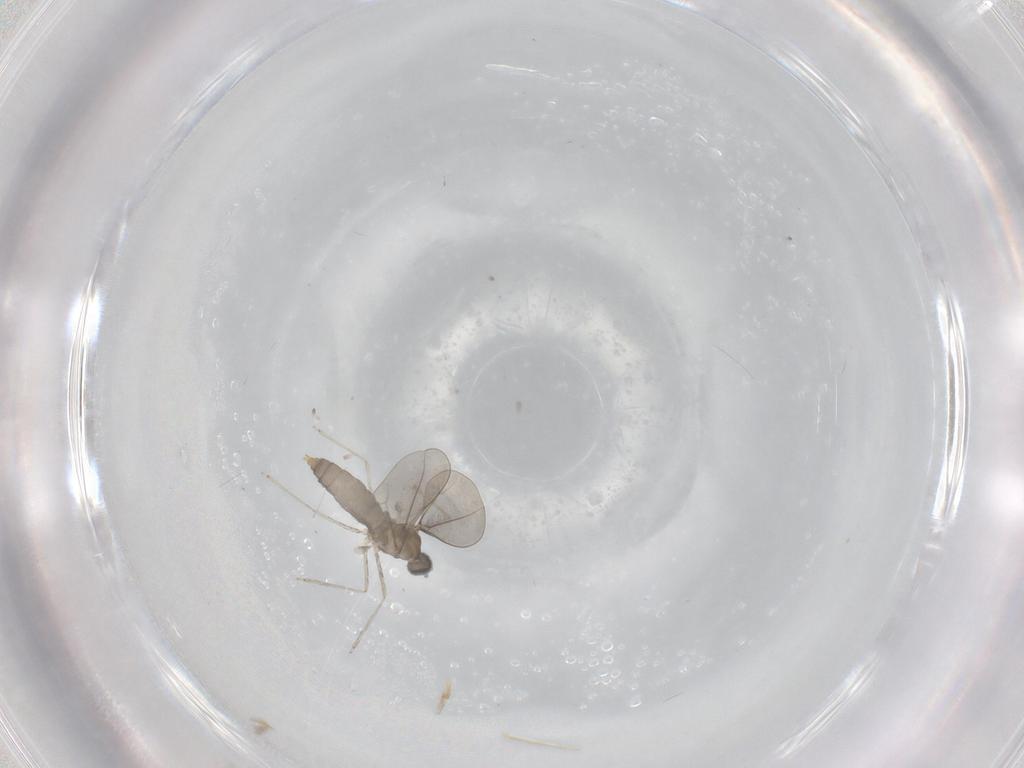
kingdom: Animalia
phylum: Arthropoda
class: Insecta
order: Diptera
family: Cecidomyiidae
